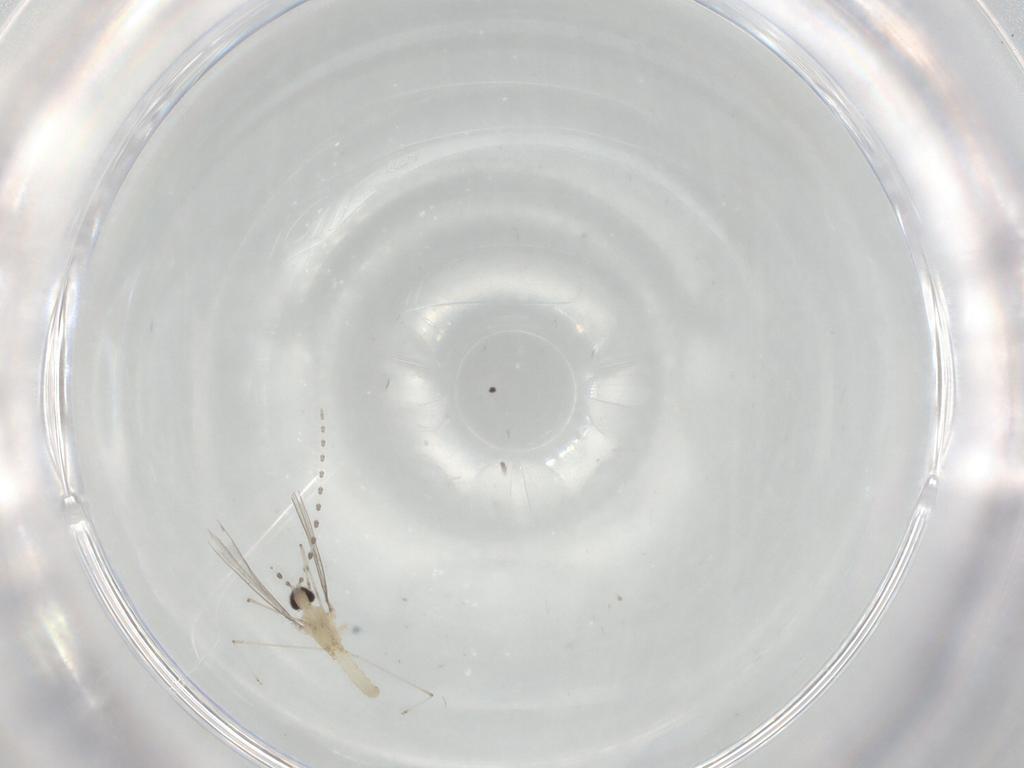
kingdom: Animalia
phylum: Arthropoda
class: Insecta
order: Diptera
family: Cecidomyiidae
